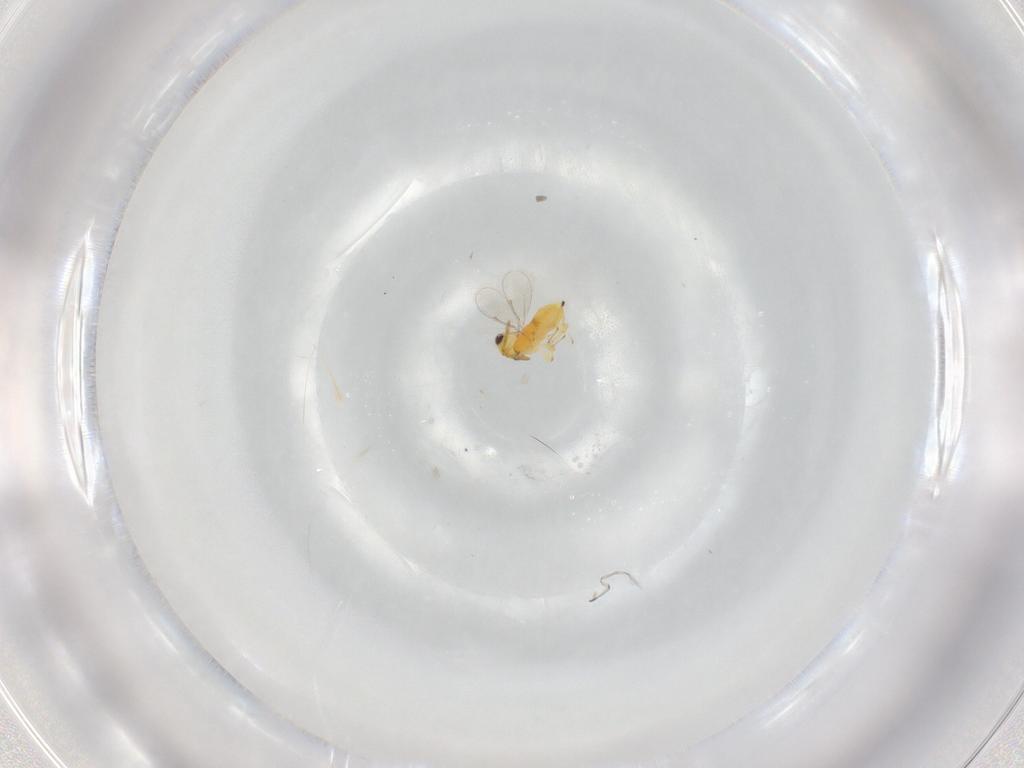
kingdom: Animalia
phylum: Arthropoda
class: Insecta
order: Hymenoptera
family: Aphelinidae
